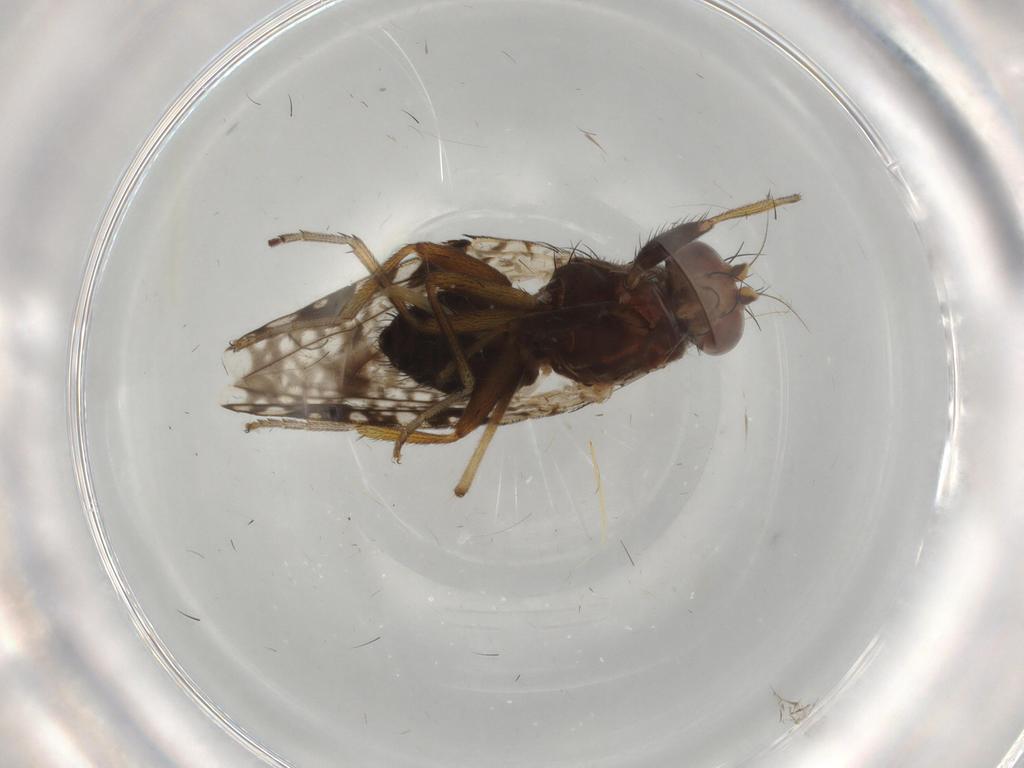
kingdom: Animalia
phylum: Arthropoda
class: Insecta
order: Diptera
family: Tephritidae
